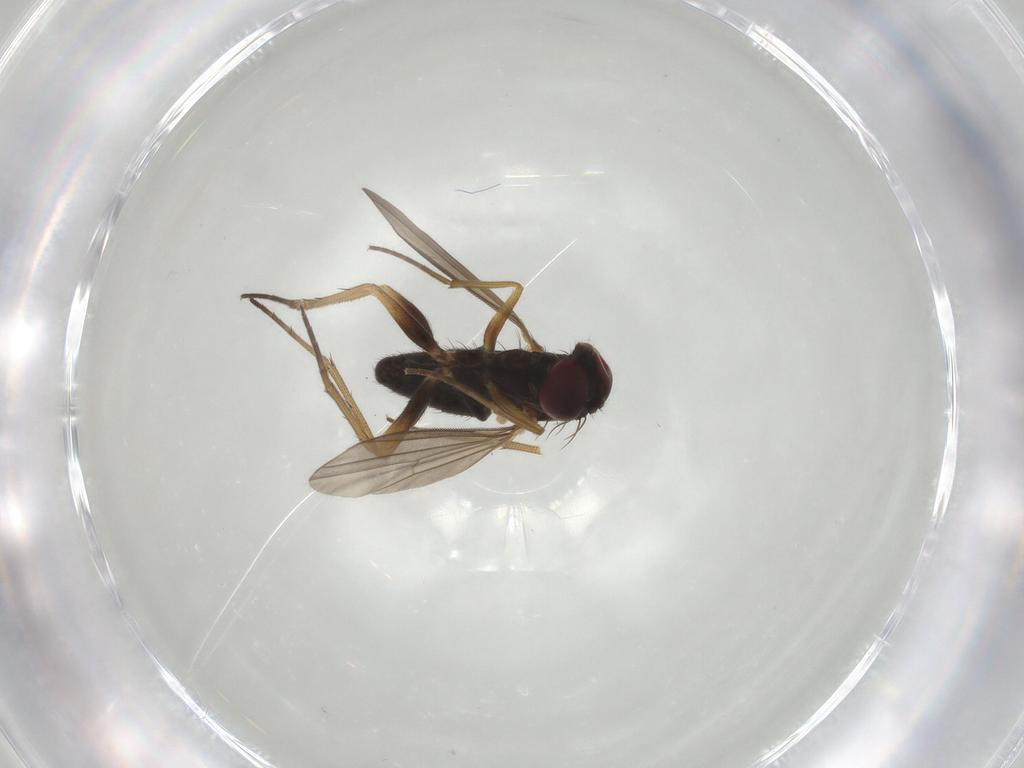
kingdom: Animalia
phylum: Arthropoda
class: Insecta
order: Diptera
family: Dolichopodidae
